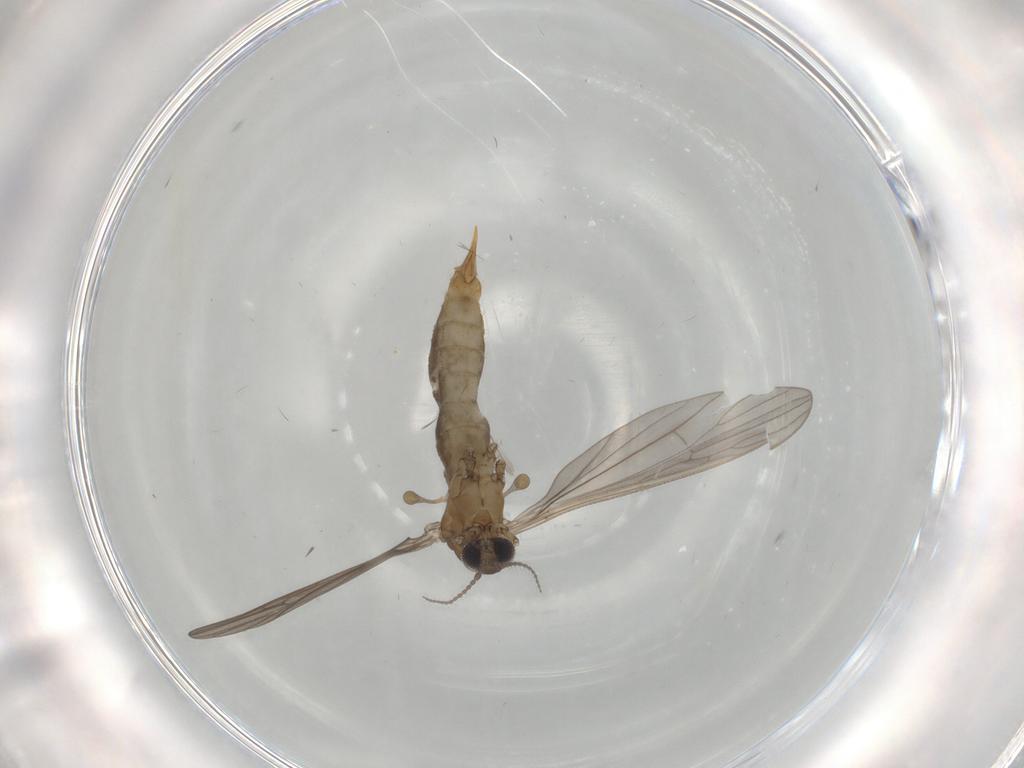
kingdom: Animalia
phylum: Arthropoda
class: Insecta
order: Diptera
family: Limoniidae
